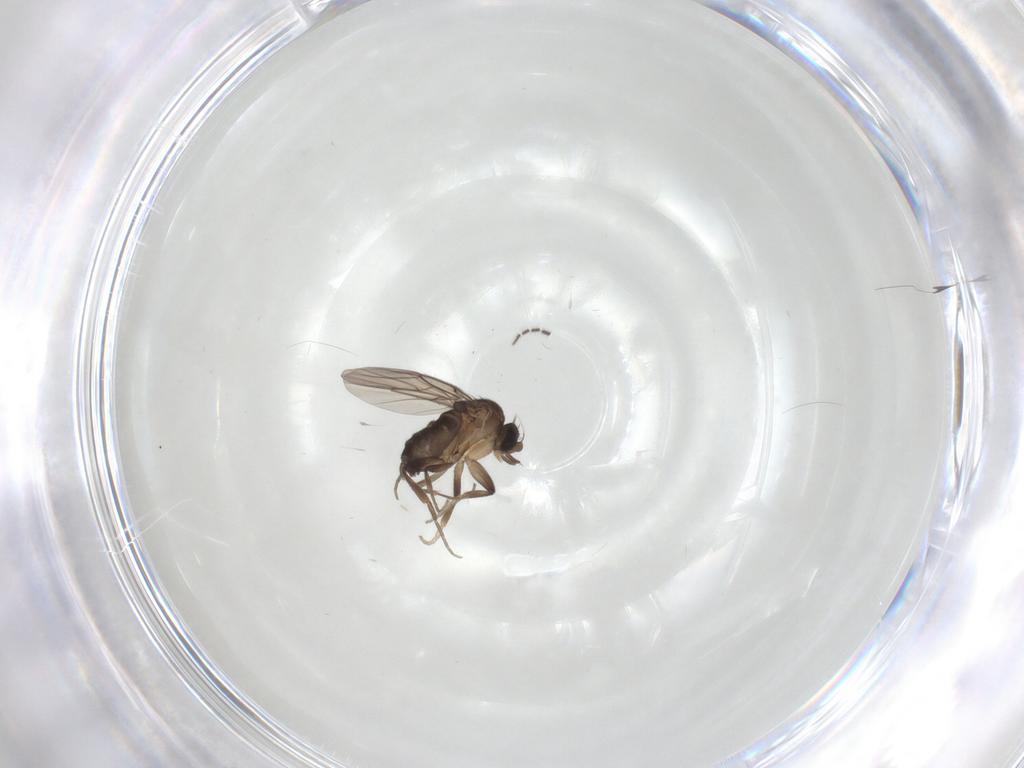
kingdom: Animalia
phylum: Arthropoda
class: Insecta
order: Diptera
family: Phoridae
